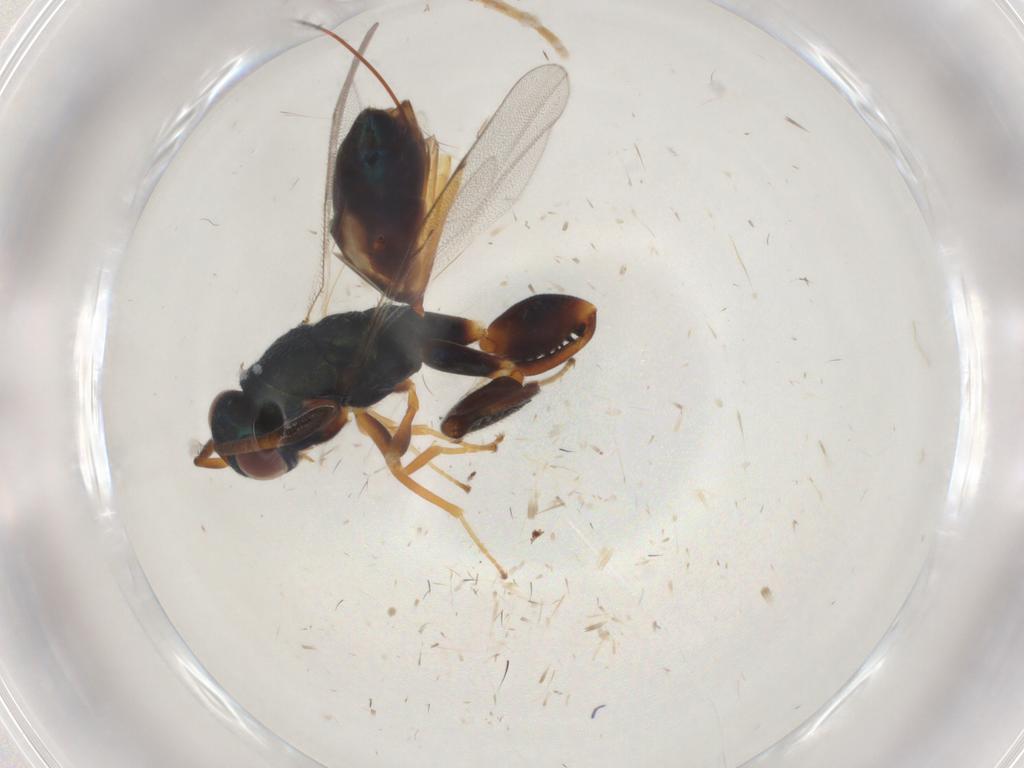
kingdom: Animalia
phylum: Arthropoda
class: Insecta
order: Hymenoptera
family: Torymidae
